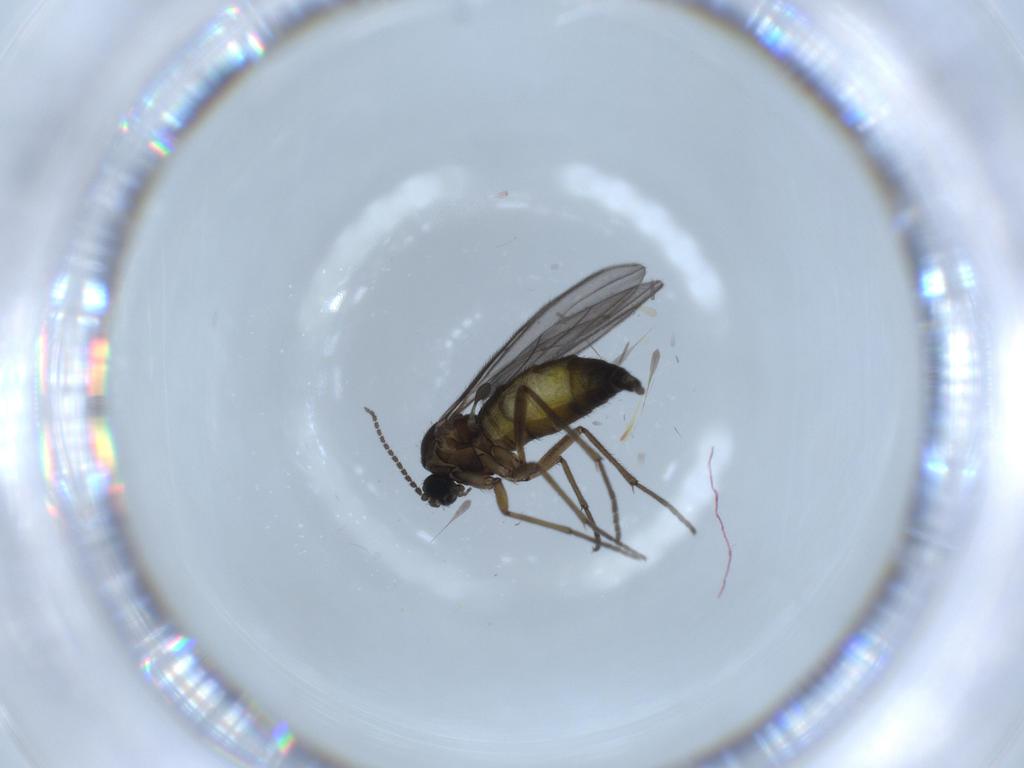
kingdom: Animalia
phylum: Arthropoda
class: Insecta
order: Diptera
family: Sciaridae
